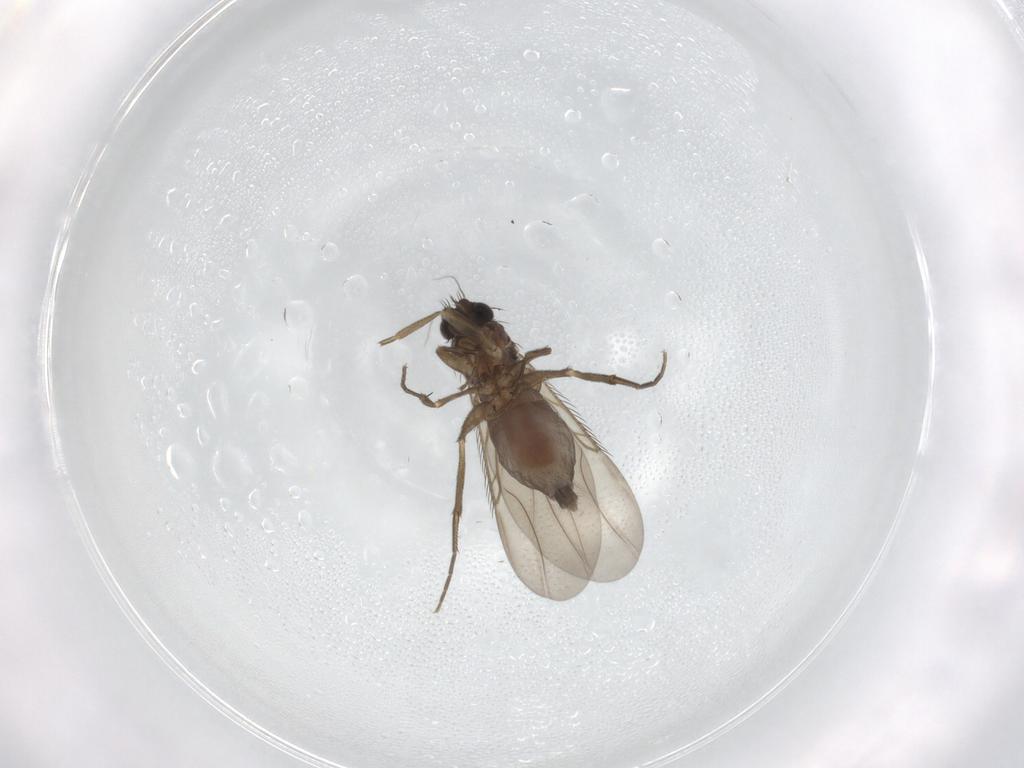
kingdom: Animalia
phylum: Arthropoda
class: Insecta
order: Diptera
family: Phoridae
